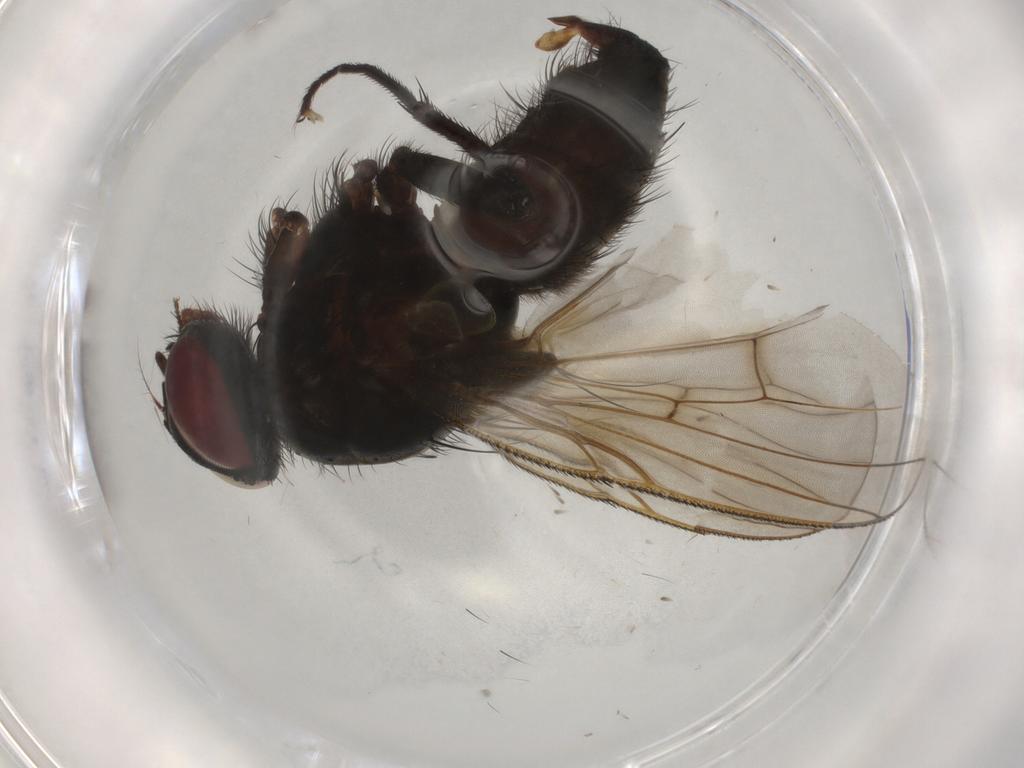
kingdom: Animalia
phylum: Arthropoda
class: Insecta
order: Diptera
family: Muscidae
